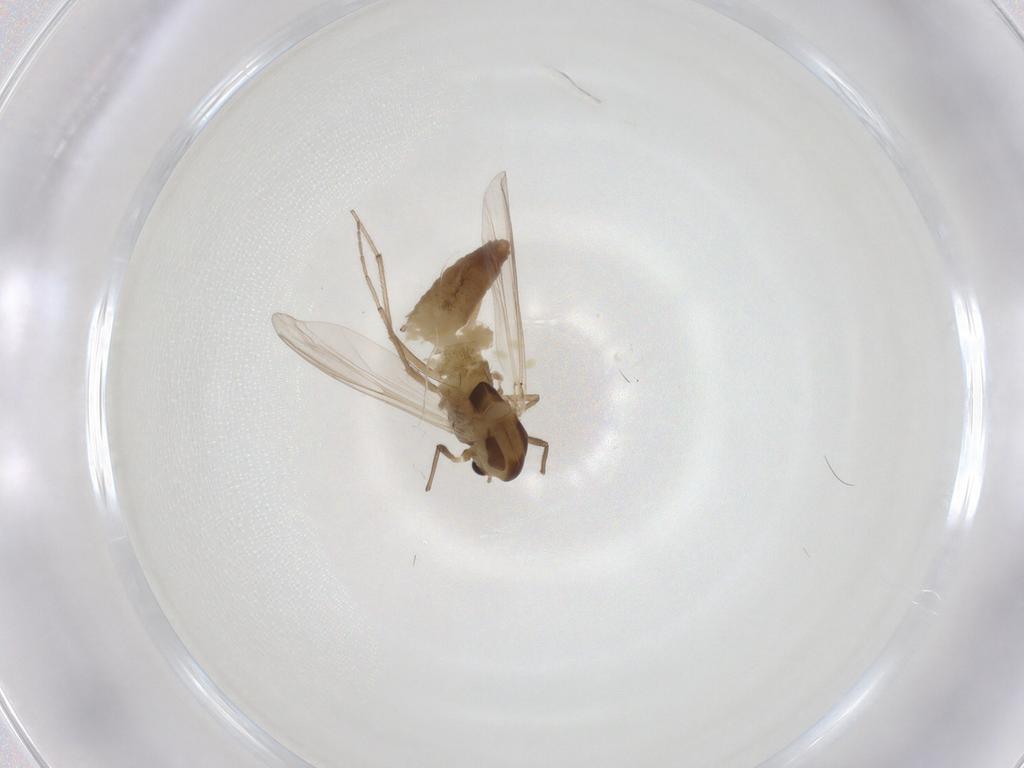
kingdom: Animalia
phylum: Arthropoda
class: Insecta
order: Diptera
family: Chironomidae
